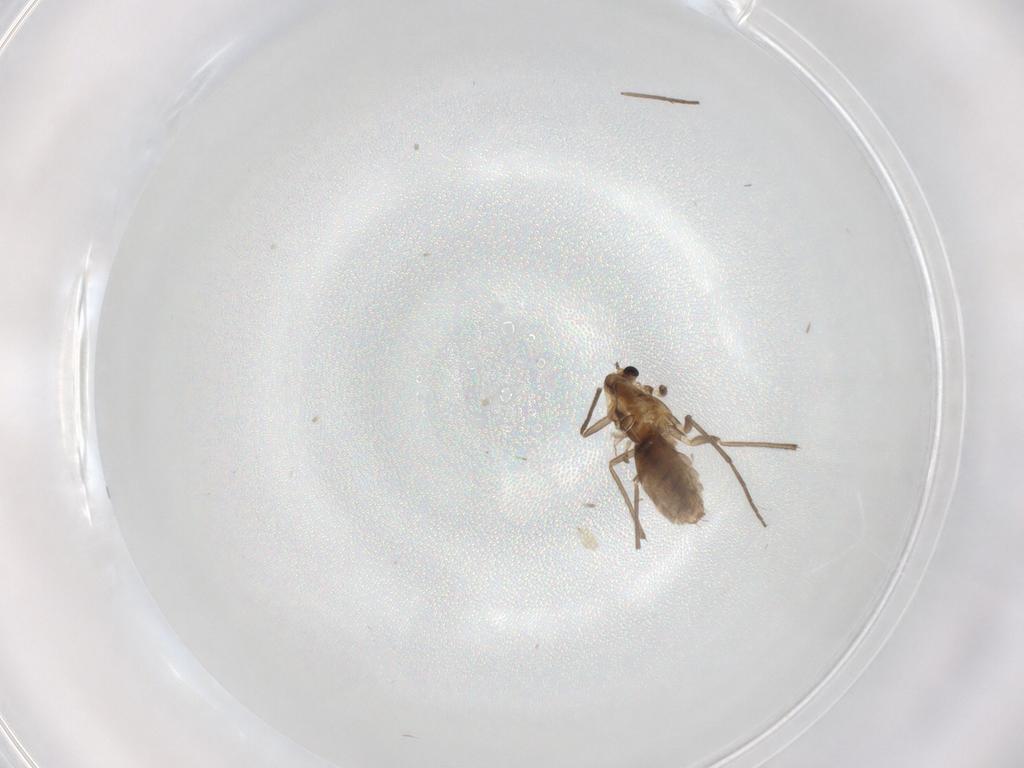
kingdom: Animalia
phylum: Arthropoda
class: Insecta
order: Diptera
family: Chironomidae
